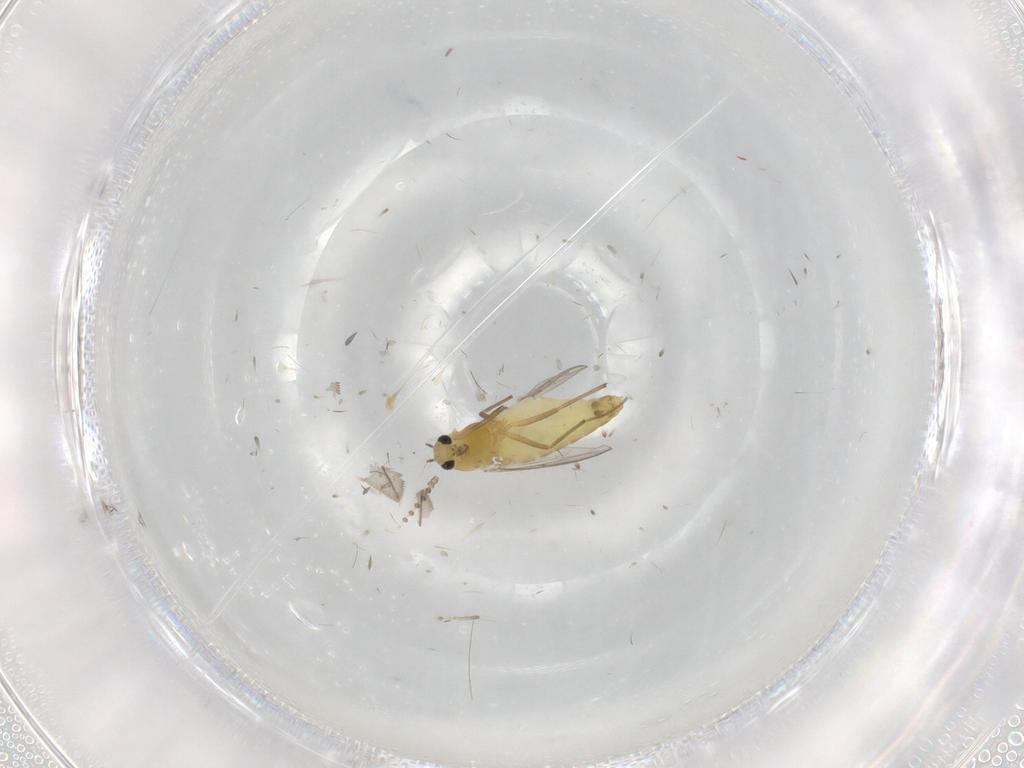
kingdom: Animalia
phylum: Arthropoda
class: Insecta
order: Diptera
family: Chironomidae
